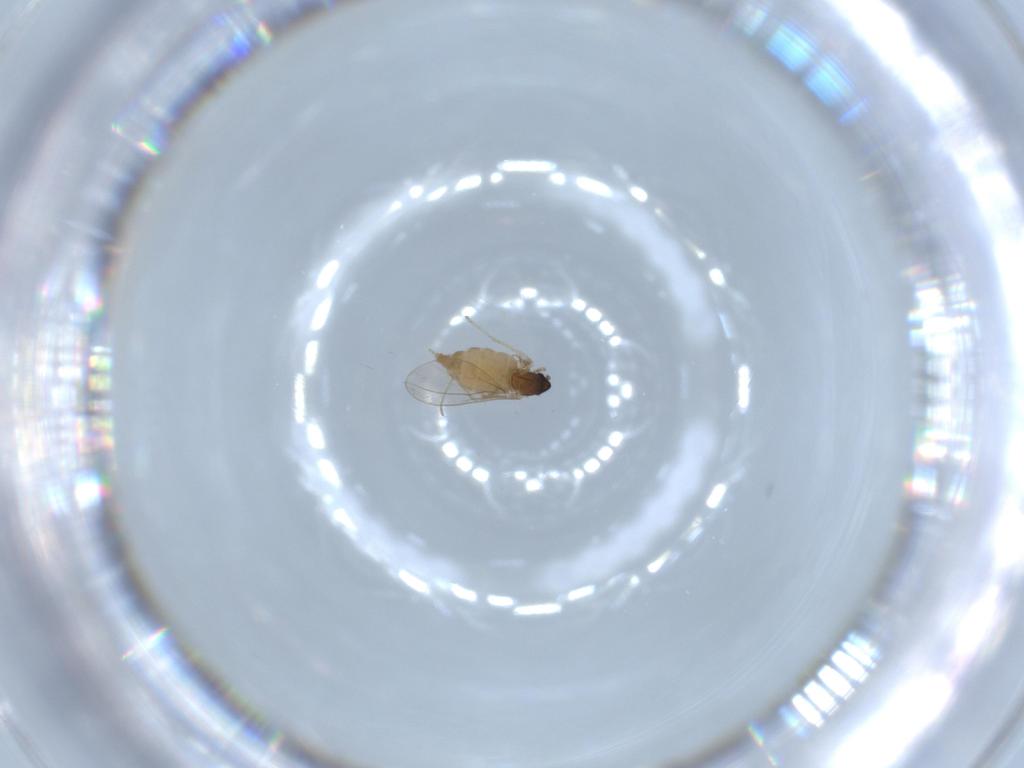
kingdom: Animalia
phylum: Arthropoda
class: Insecta
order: Diptera
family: Cecidomyiidae
